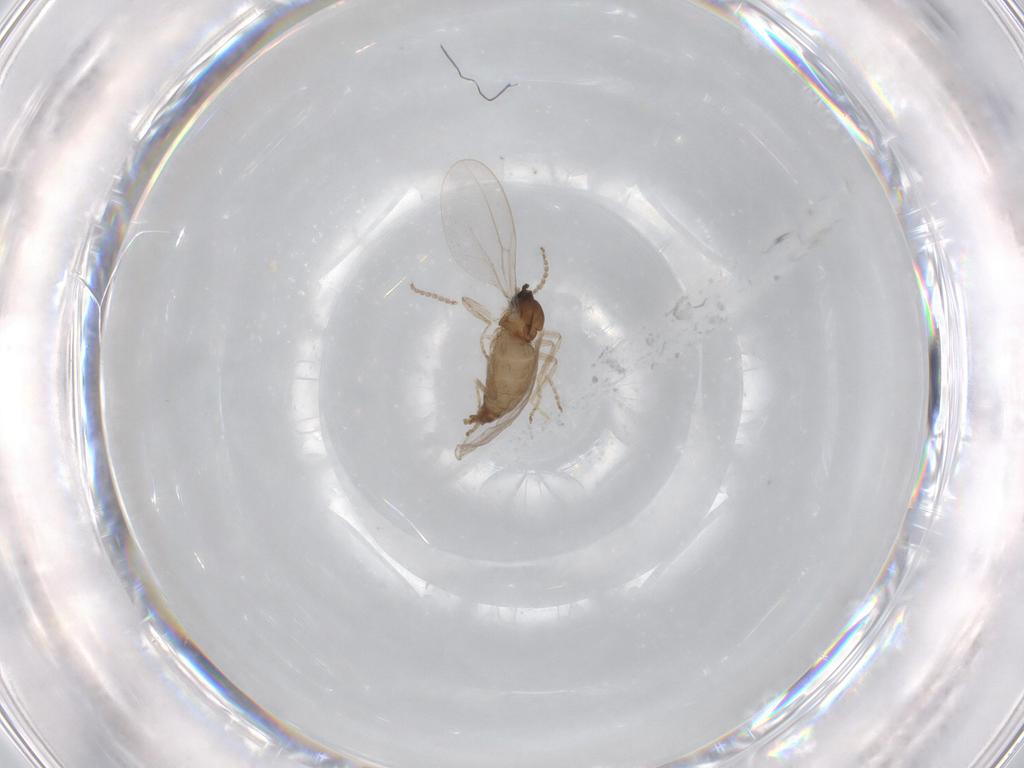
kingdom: Animalia
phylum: Arthropoda
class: Insecta
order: Diptera
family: Cecidomyiidae
